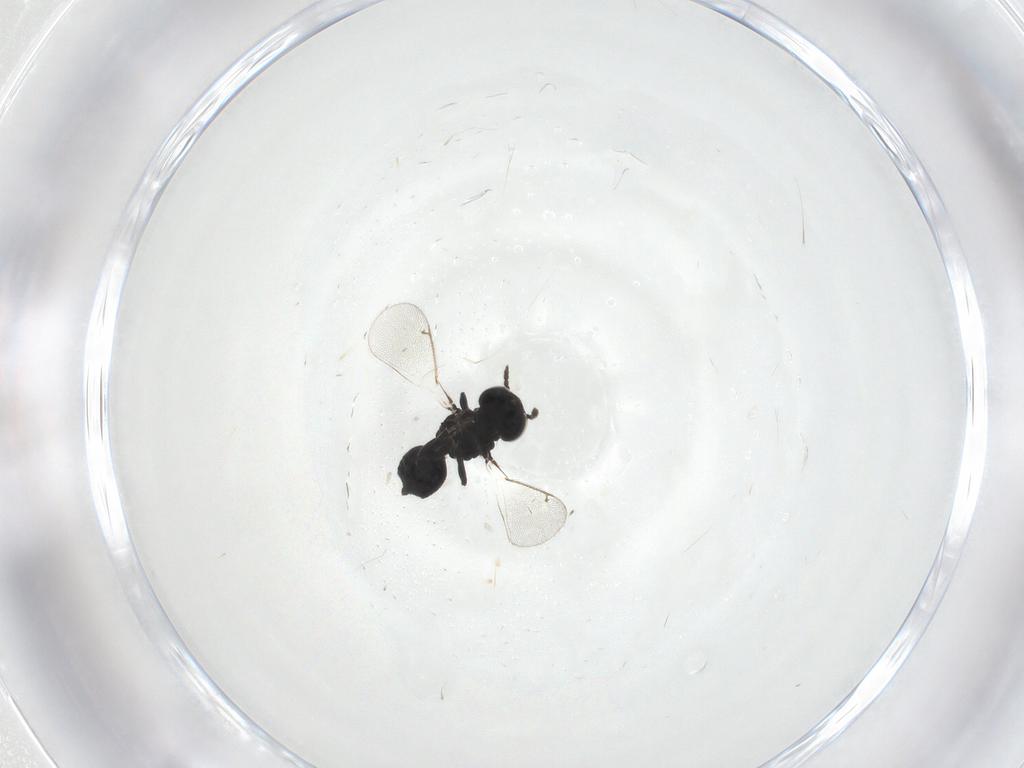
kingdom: Animalia
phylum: Arthropoda
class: Insecta
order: Hymenoptera
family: Eulophidae
